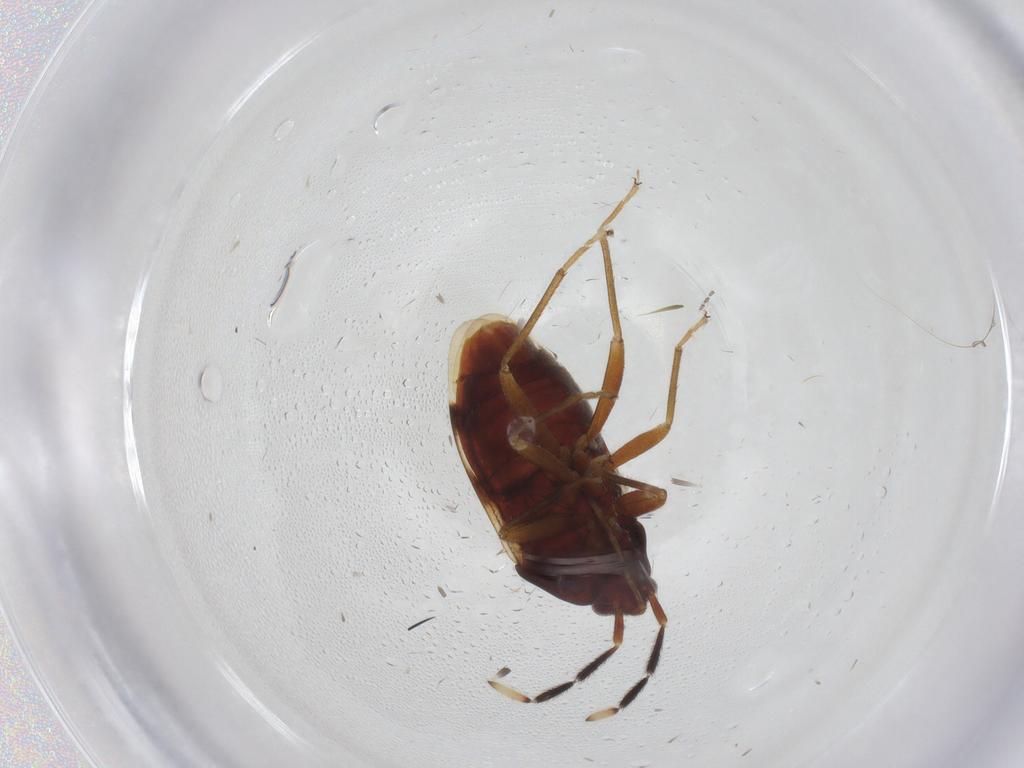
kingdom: Animalia
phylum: Arthropoda
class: Insecta
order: Hemiptera
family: Rhyparochromidae
